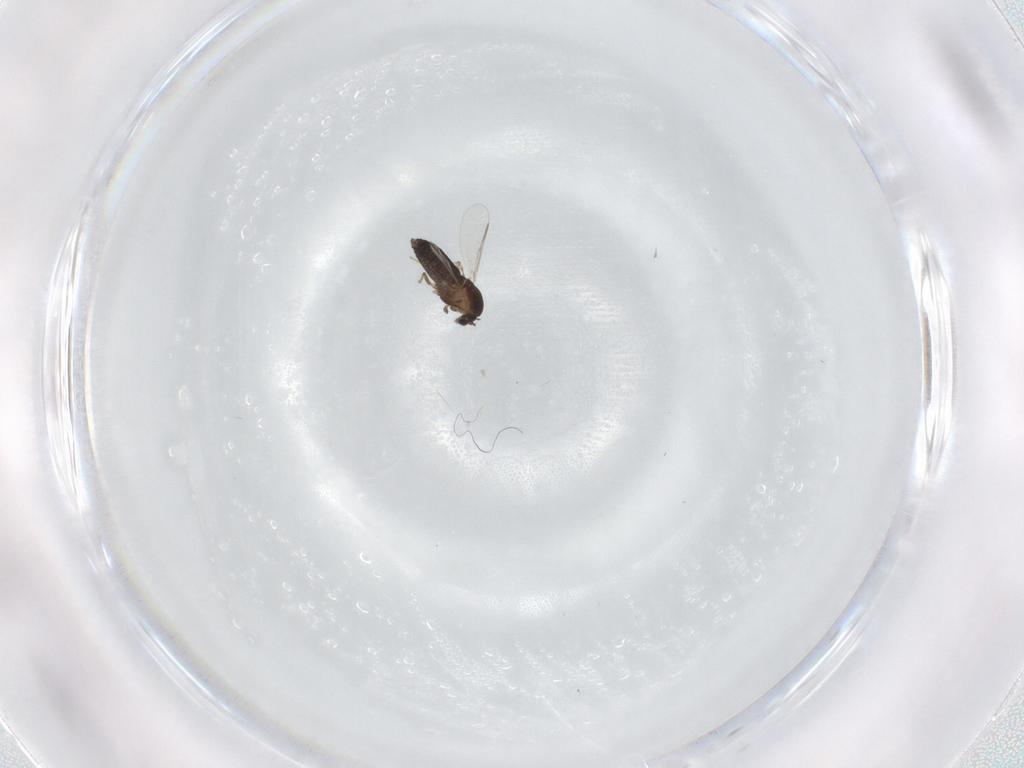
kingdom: Animalia
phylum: Arthropoda
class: Insecta
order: Diptera
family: Chironomidae
